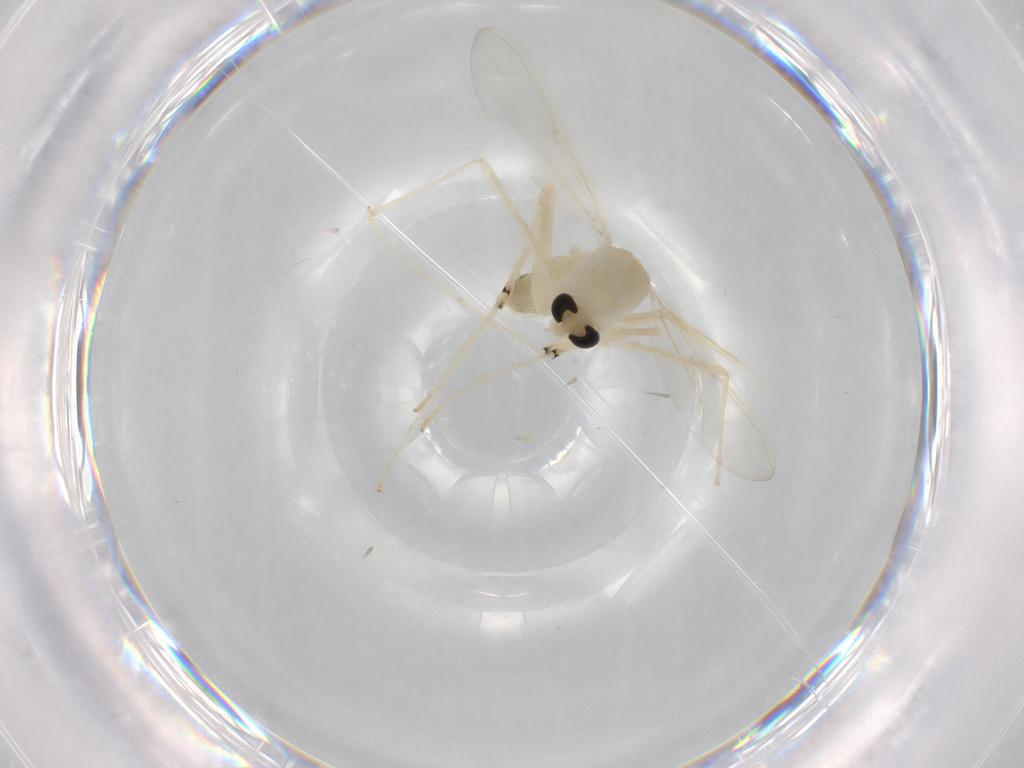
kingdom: Animalia
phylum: Arthropoda
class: Insecta
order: Diptera
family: Chironomidae
